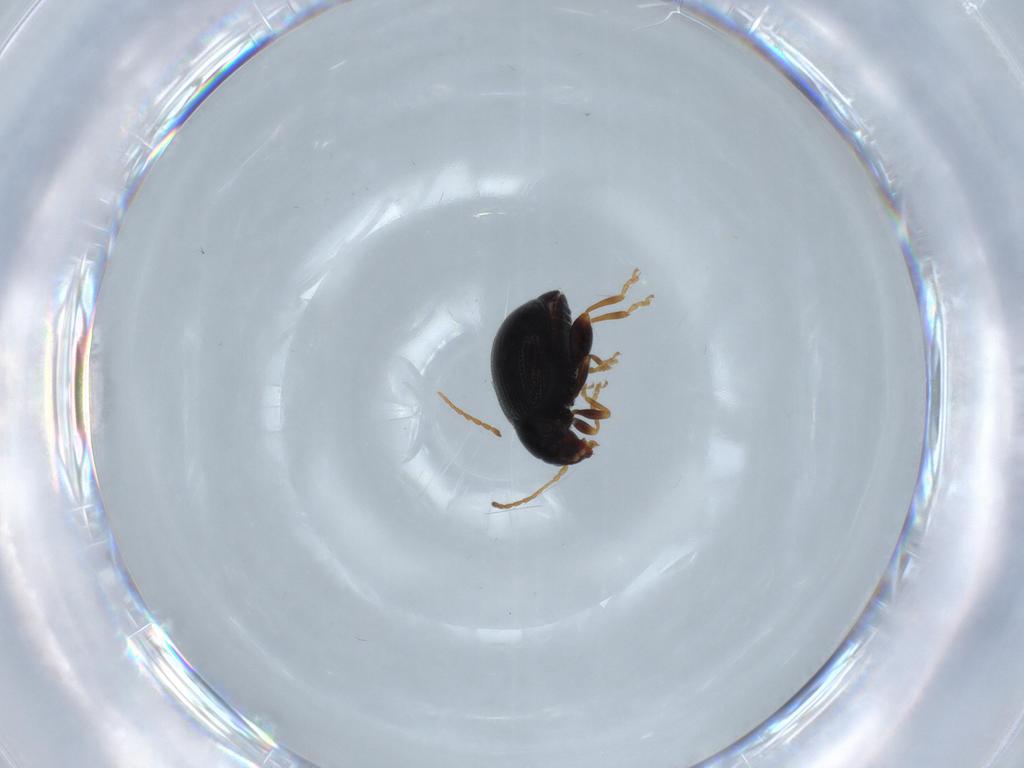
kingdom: Animalia
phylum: Arthropoda
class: Insecta
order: Coleoptera
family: Chrysomelidae
